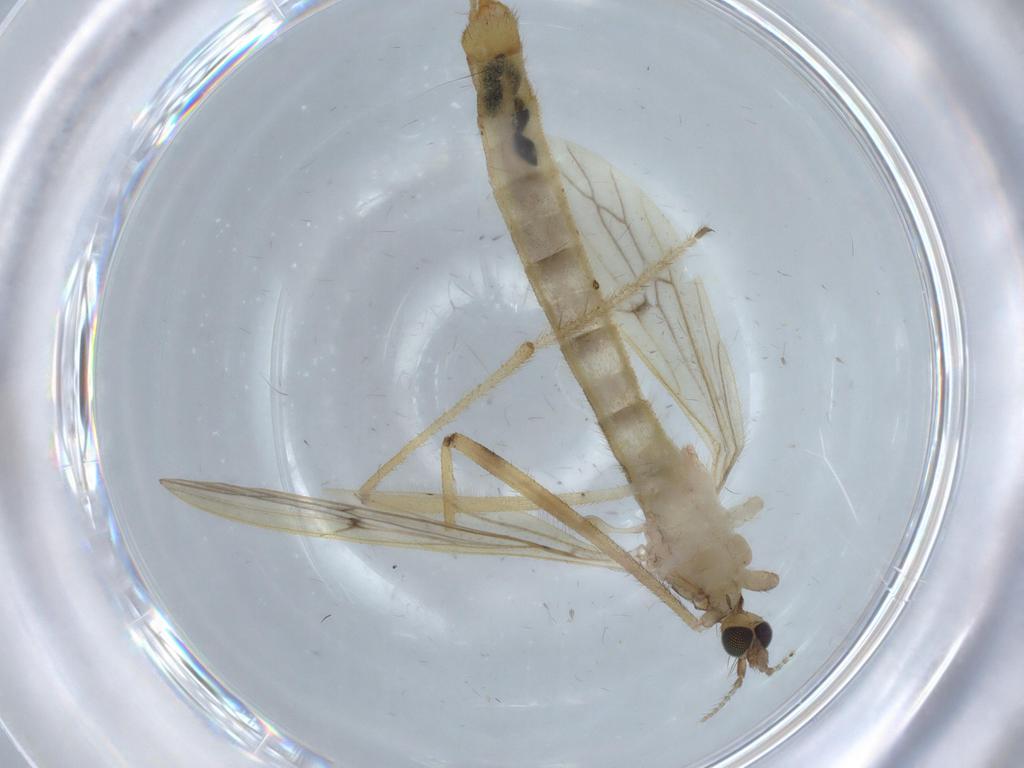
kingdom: Animalia
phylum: Arthropoda
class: Insecta
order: Diptera
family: Limoniidae
